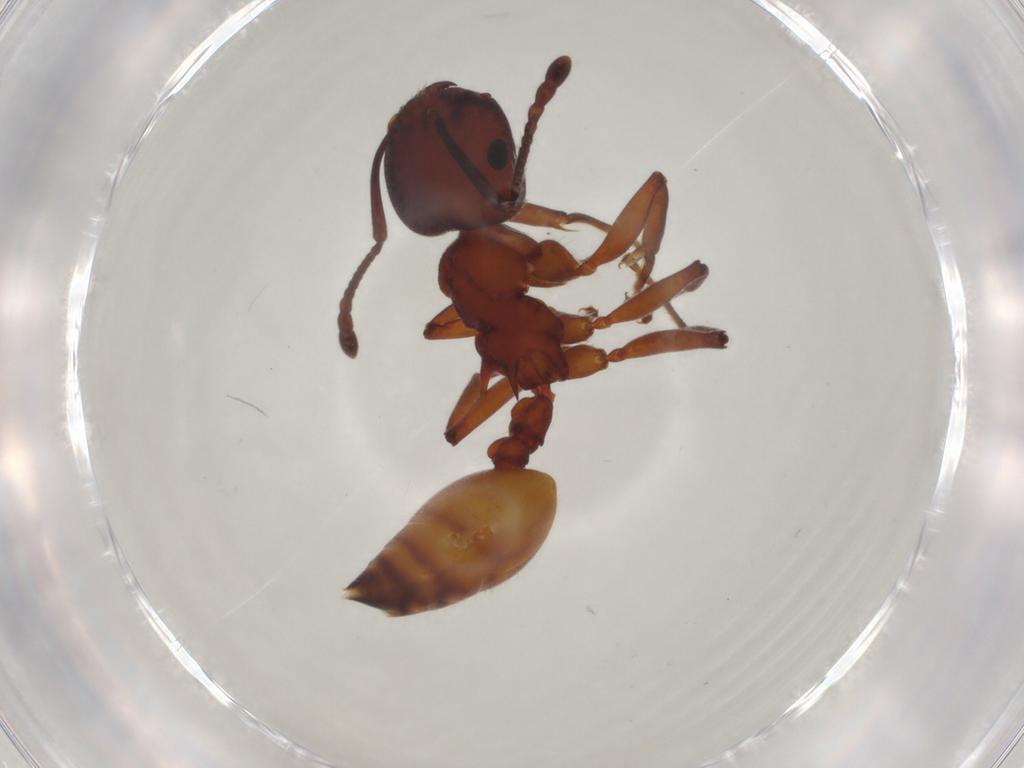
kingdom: Animalia
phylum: Arthropoda
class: Insecta
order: Hymenoptera
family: Formicidae
